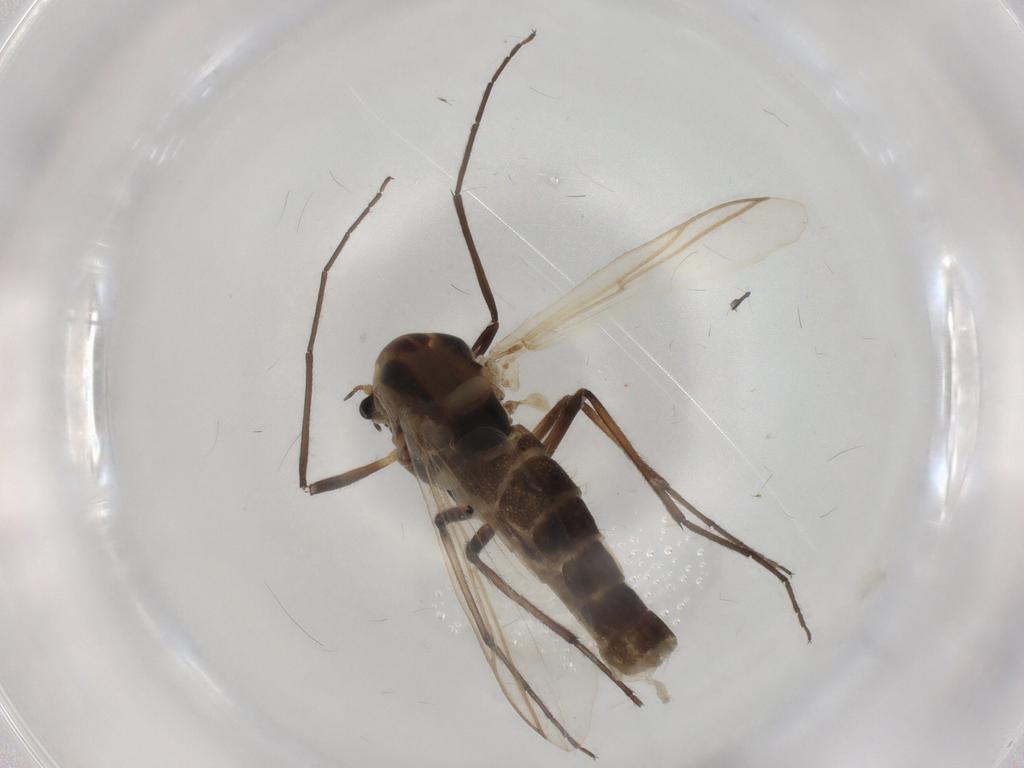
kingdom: Animalia
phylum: Arthropoda
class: Insecta
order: Diptera
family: Chironomidae
